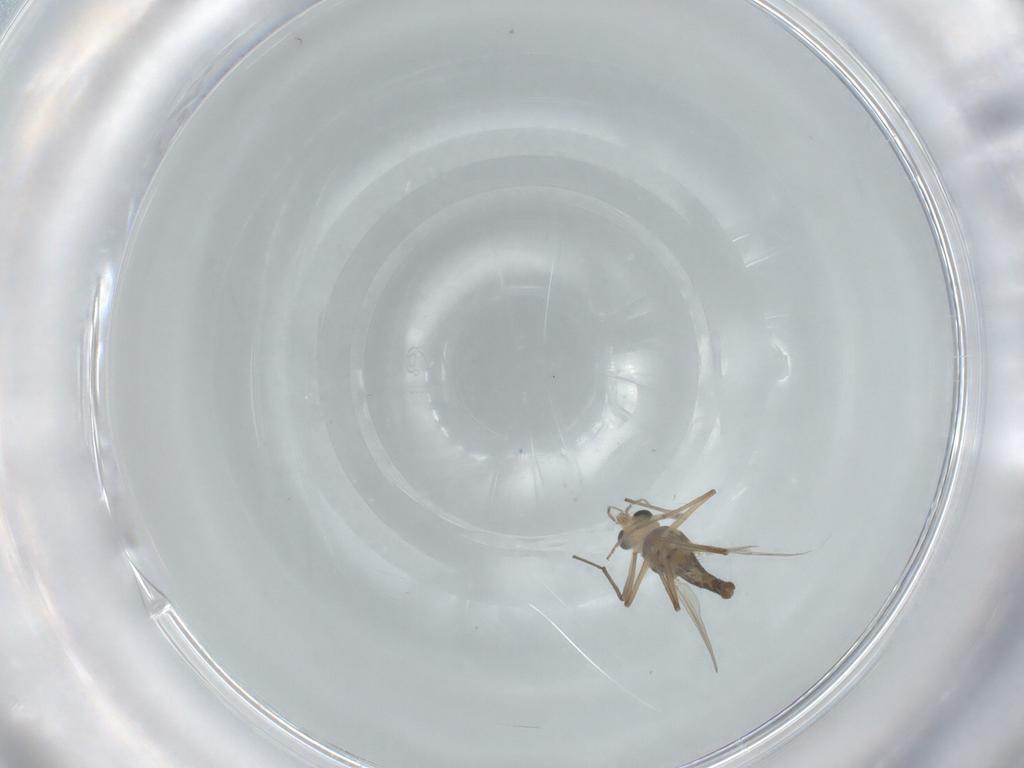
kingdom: Animalia
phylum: Arthropoda
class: Insecta
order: Diptera
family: Chironomidae
